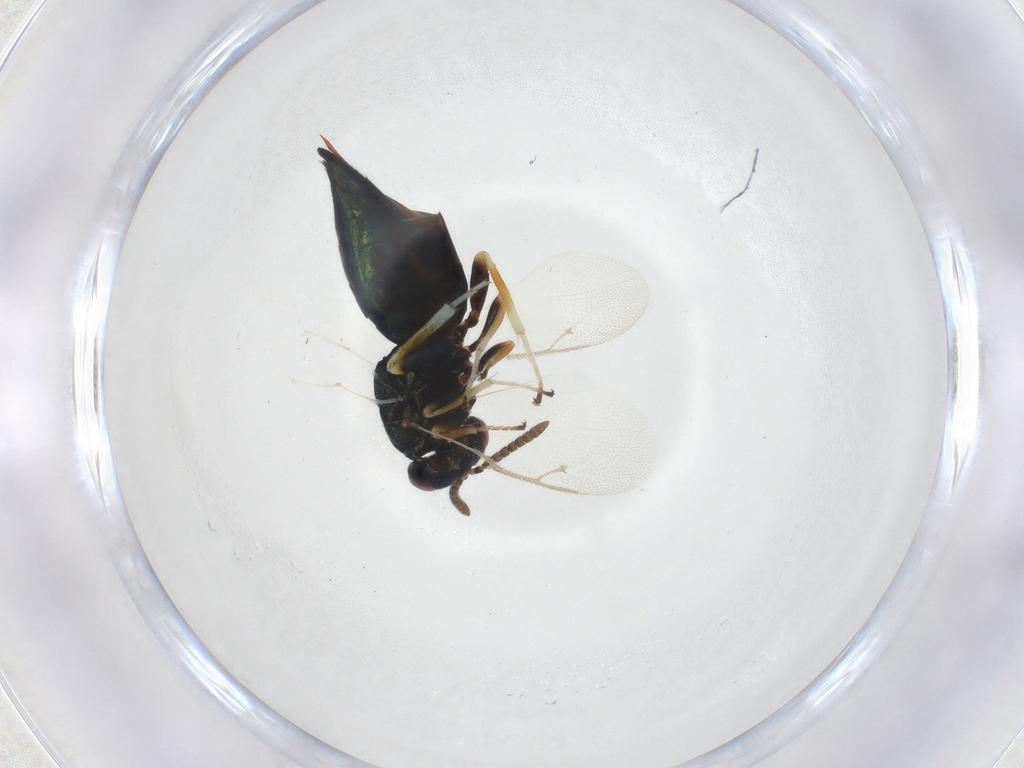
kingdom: Animalia
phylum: Arthropoda
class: Insecta
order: Hymenoptera
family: Pteromalidae
